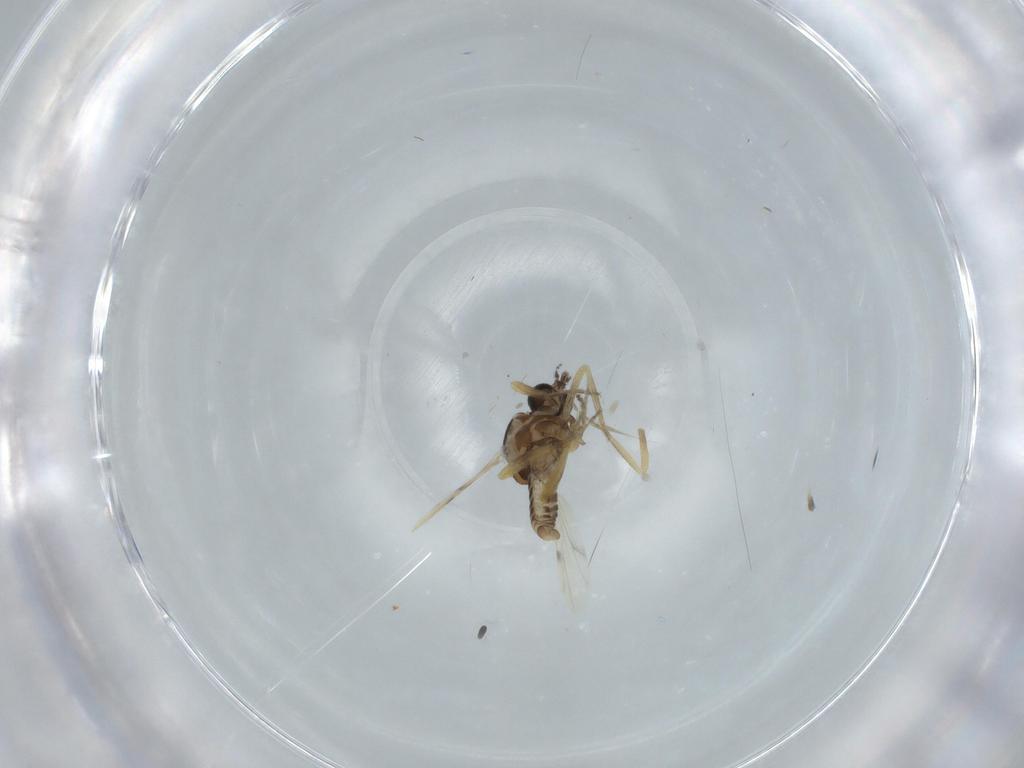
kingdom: Animalia
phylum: Arthropoda
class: Insecta
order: Diptera
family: Ceratopogonidae
